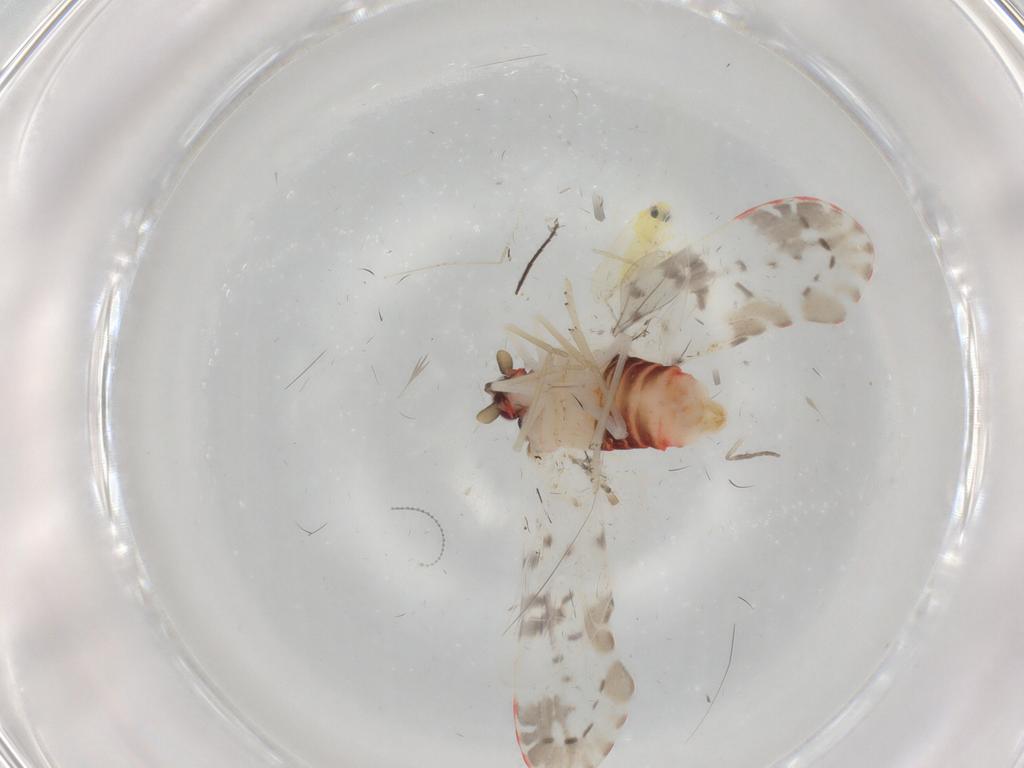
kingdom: Animalia
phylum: Arthropoda
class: Insecta
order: Hemiptera
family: Derbidae
